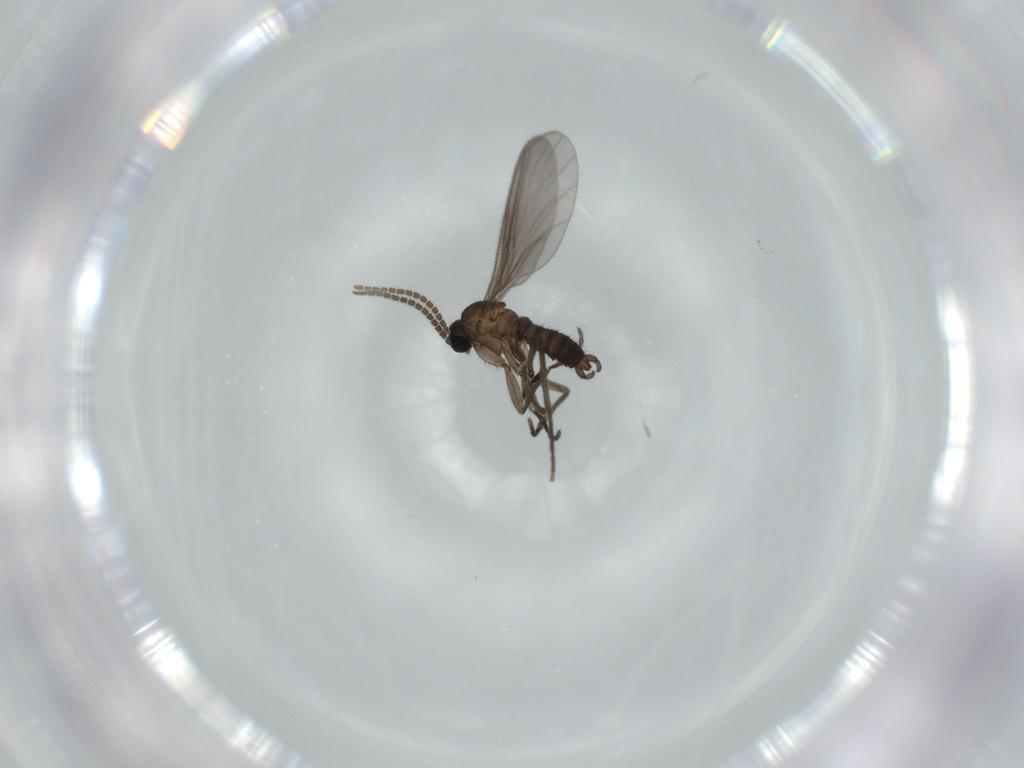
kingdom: Animalia
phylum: Arthropoda
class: Insecta
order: Diptera
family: Sciaridae
